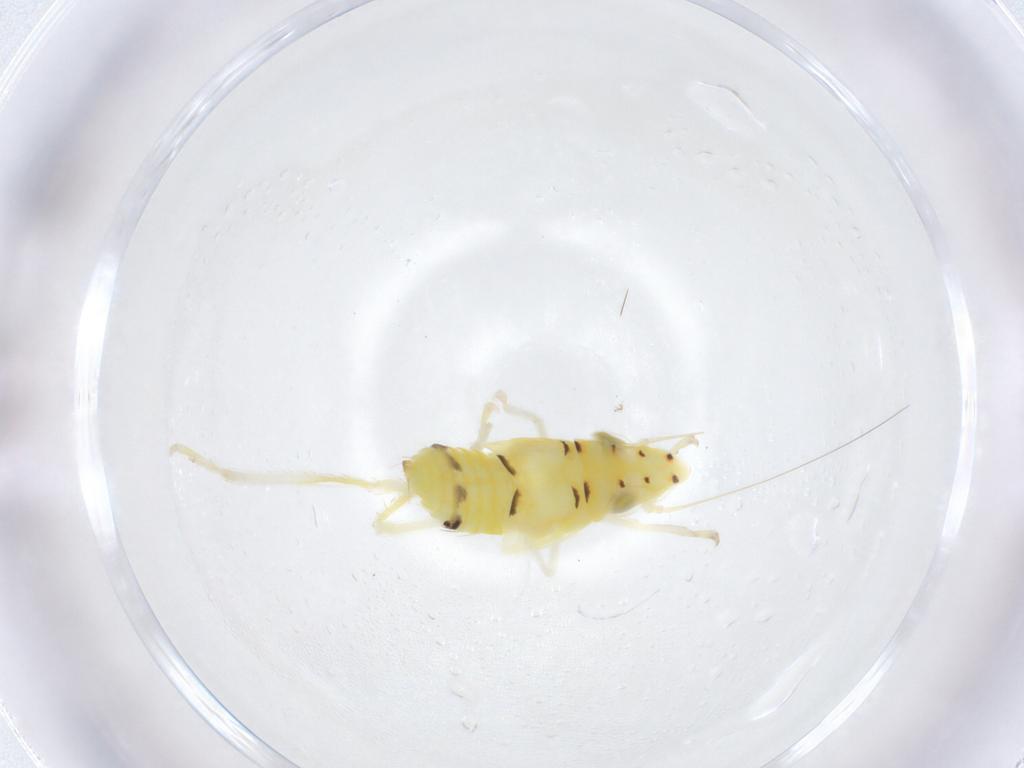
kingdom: Animalia
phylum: Arthropoda
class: Insecta
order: Hemiptera
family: Cicadellidae
